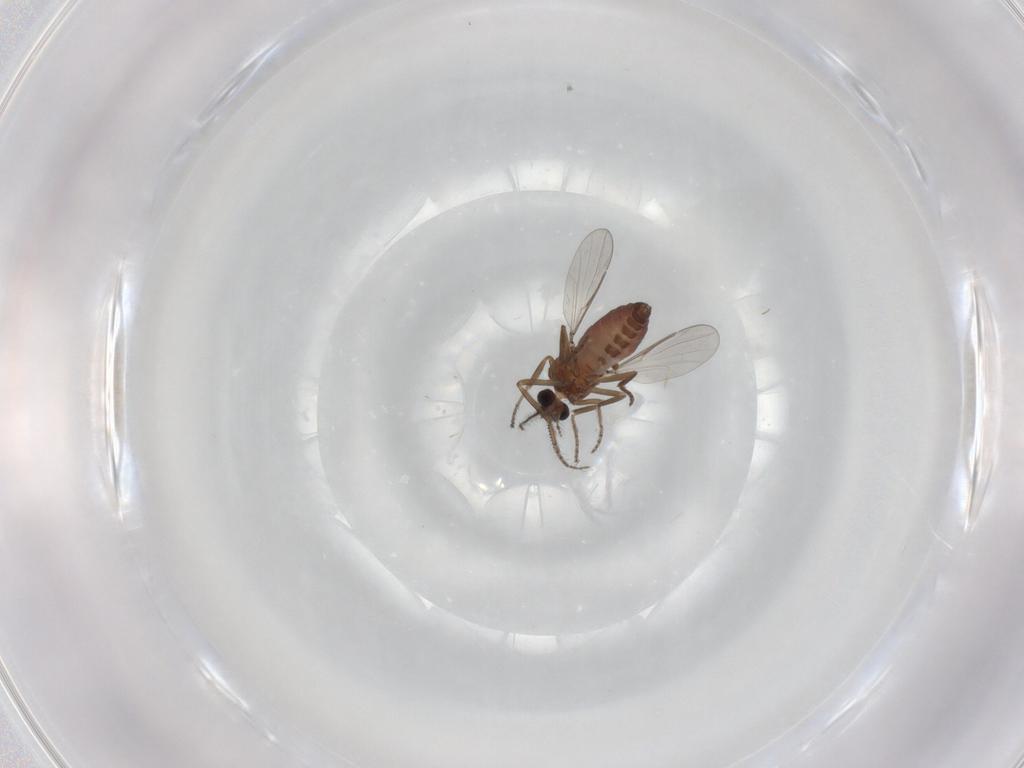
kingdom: Animalia
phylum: Arthropoda
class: Insecta
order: Diptera
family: Ceratopogonidae
